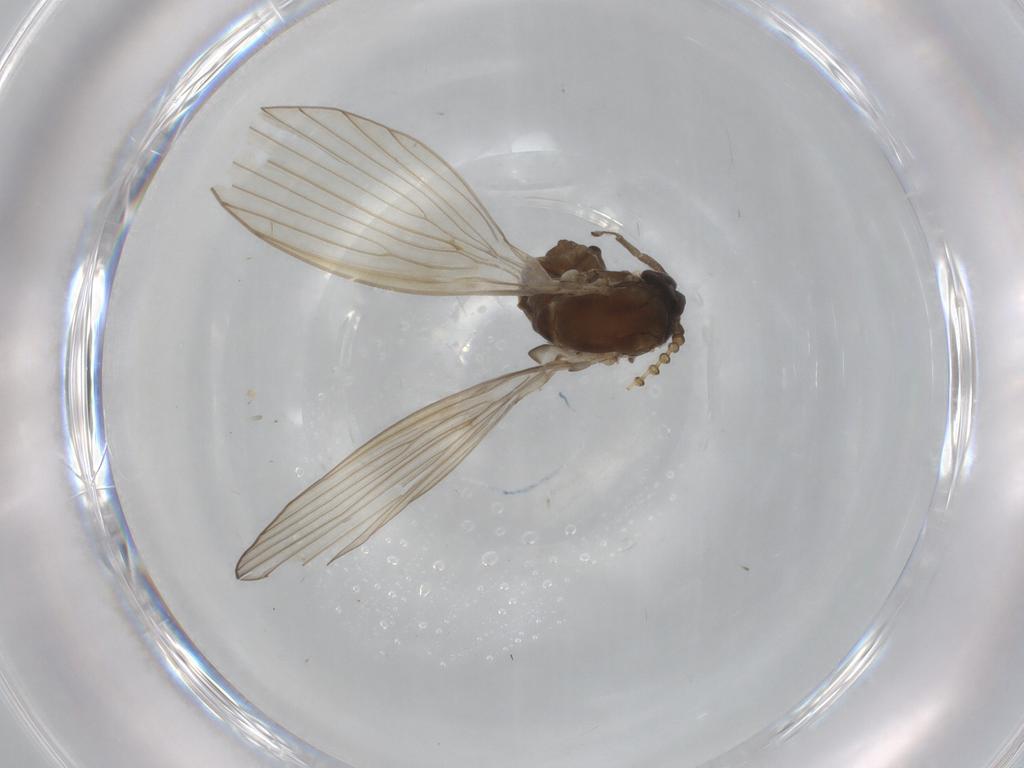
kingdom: Animalia
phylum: Arthropoda
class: Insecta
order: Diptera
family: Psychodidae
